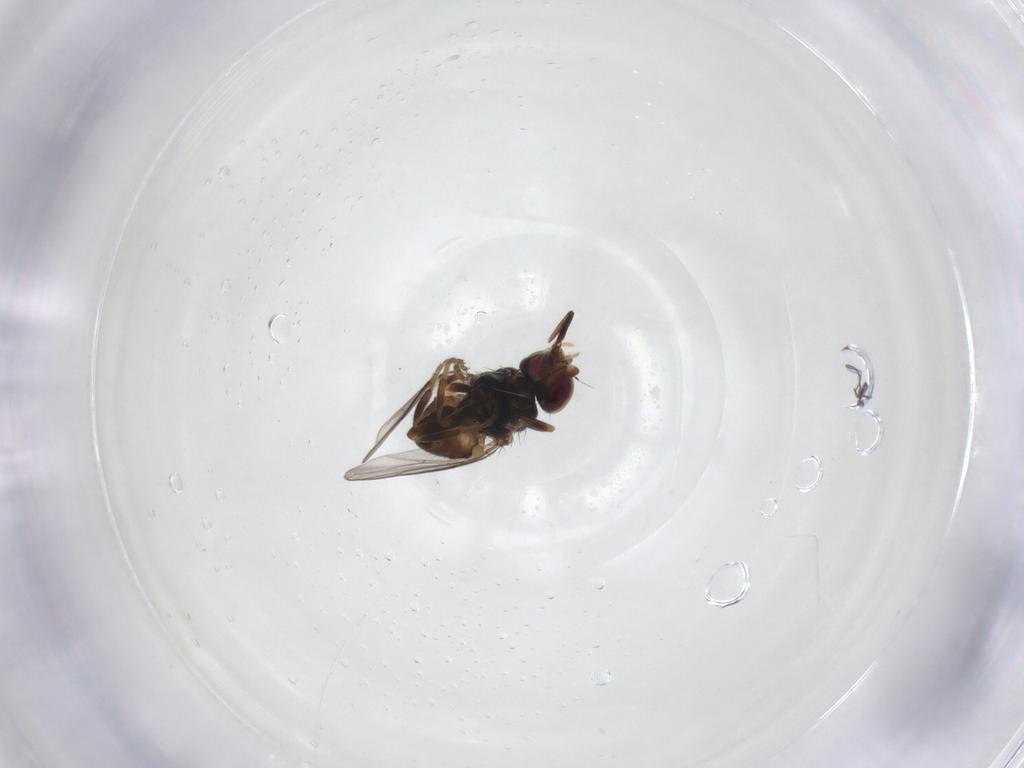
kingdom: Animalia
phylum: Arthropoda
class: Insecta
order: Diptera
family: Chloropidae
